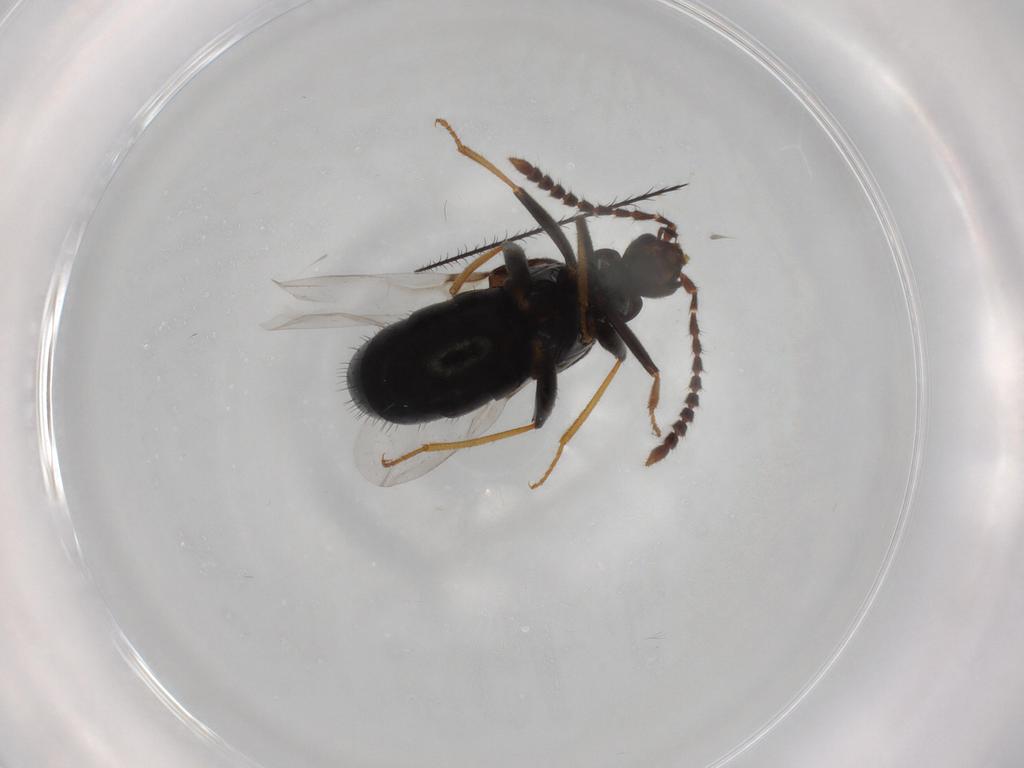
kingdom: Animalia
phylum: Arthropoda
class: Insecta
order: Coleoptera
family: Staphylinidae
